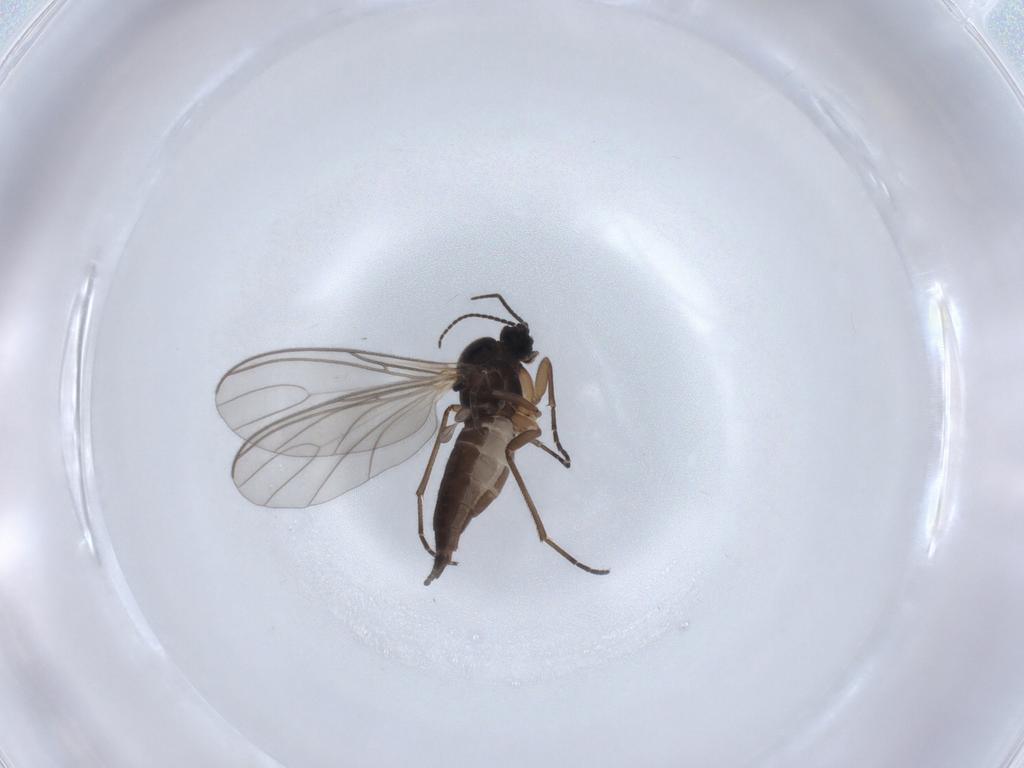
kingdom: Animalia
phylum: Arthropoda
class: Insecta
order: Diptera
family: Sciaridae
